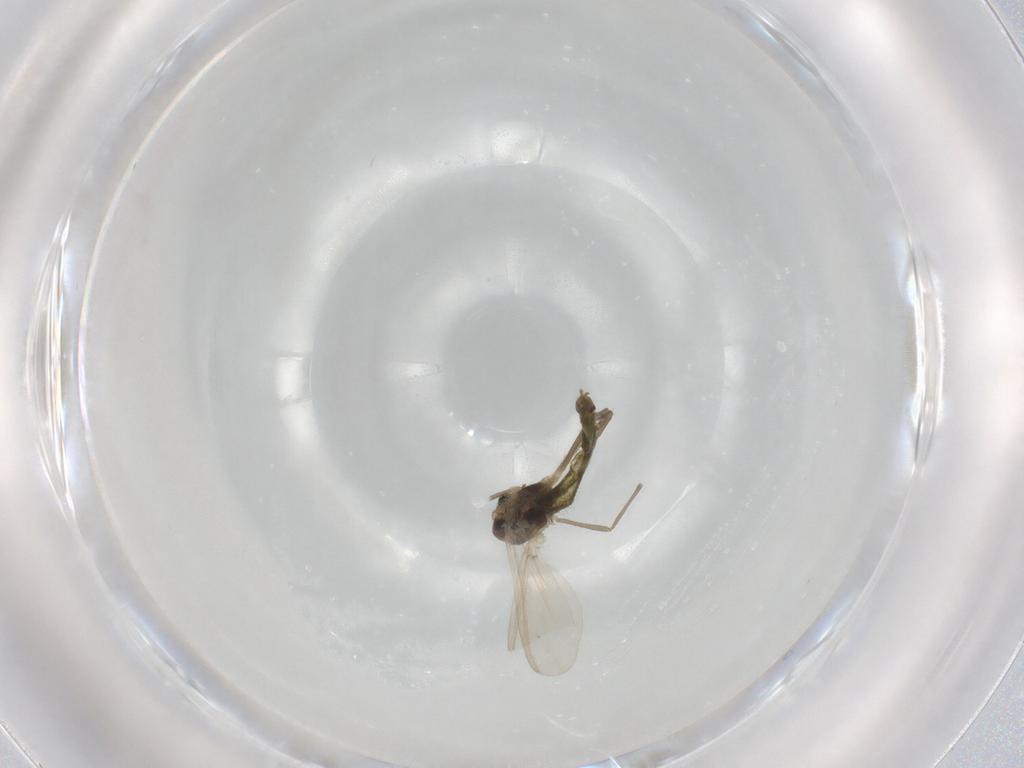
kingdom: Animalia
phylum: Arthropoda
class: Insecta
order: Diptera
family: Chironomidae
